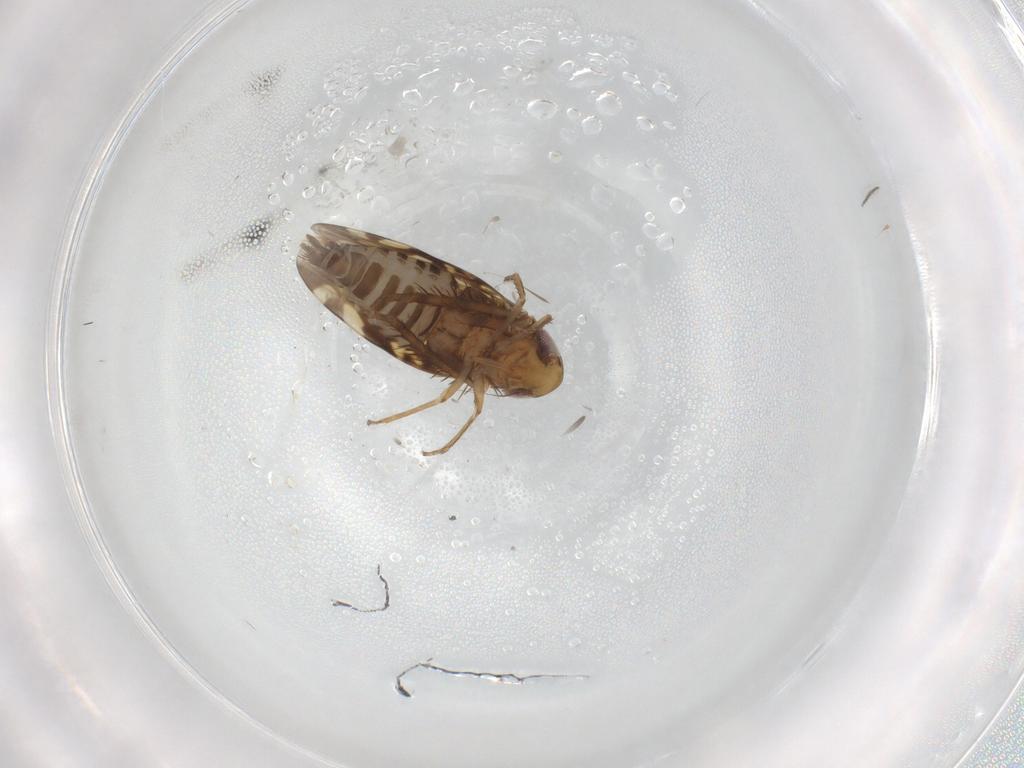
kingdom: Animalia
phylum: Arthropoda
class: Insecta
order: Hemiptera
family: Cicadellidae
